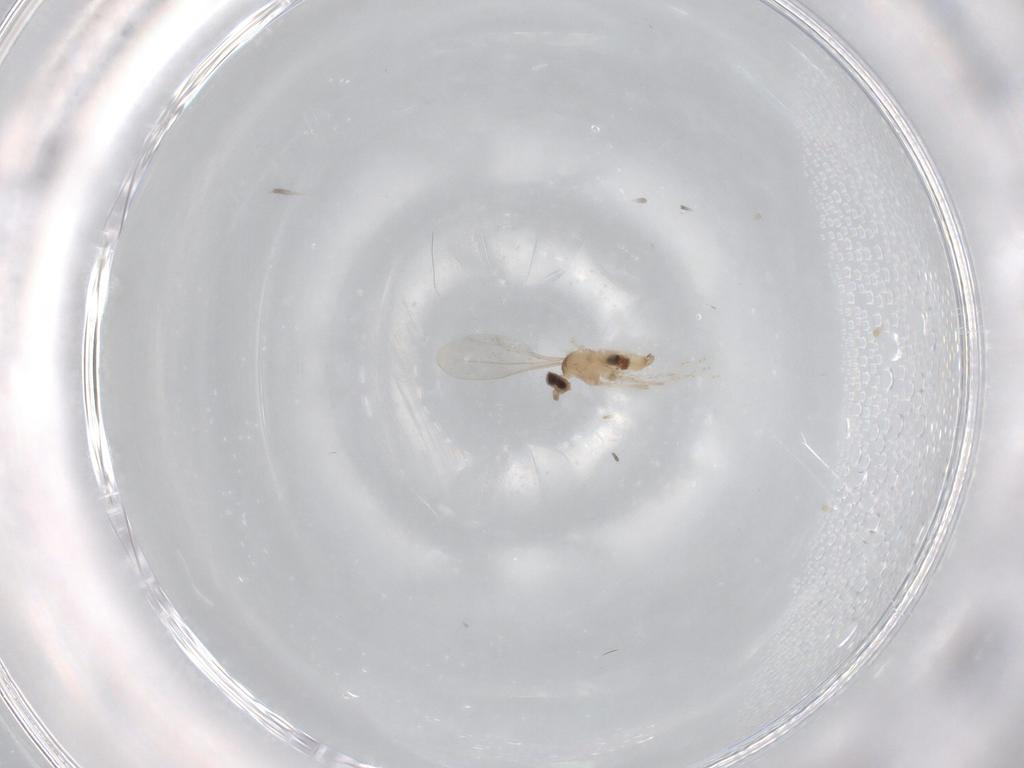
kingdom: Animalia
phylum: Arthropoda
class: Insecta
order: Diptera
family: Cecidomyiidae
